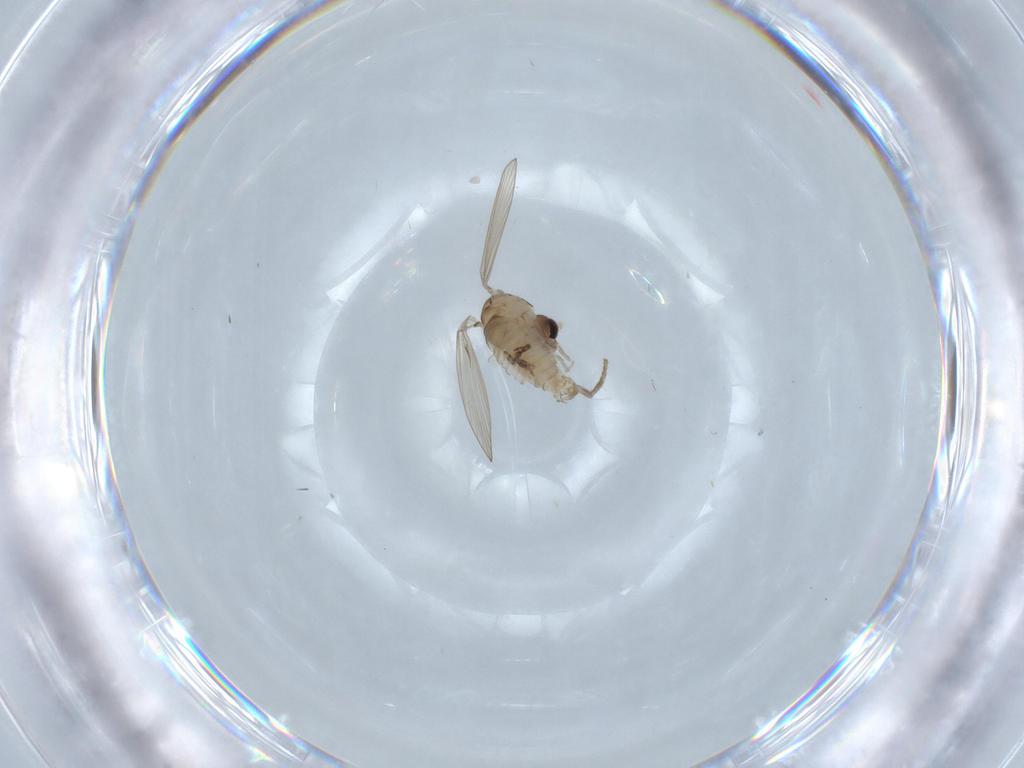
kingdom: Animalia
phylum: Arthropoda
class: Insecta
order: Diptera
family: Psychodidae
